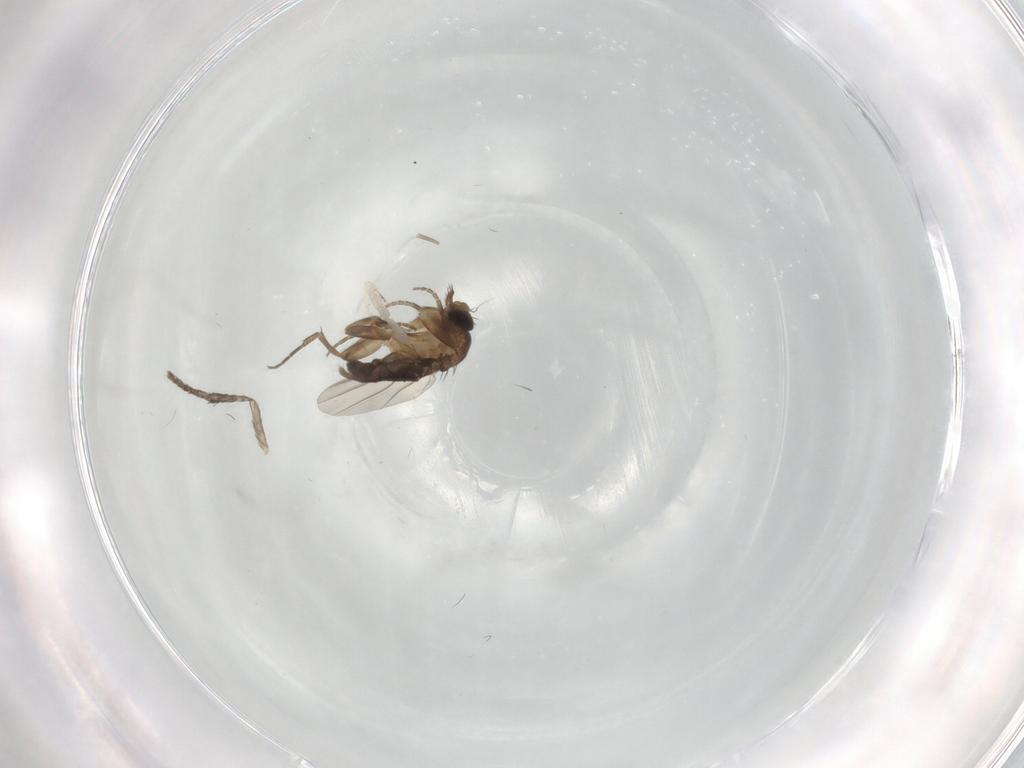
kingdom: Animalia
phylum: Arthropoda
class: Insecta
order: Diptera
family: Phoridae
